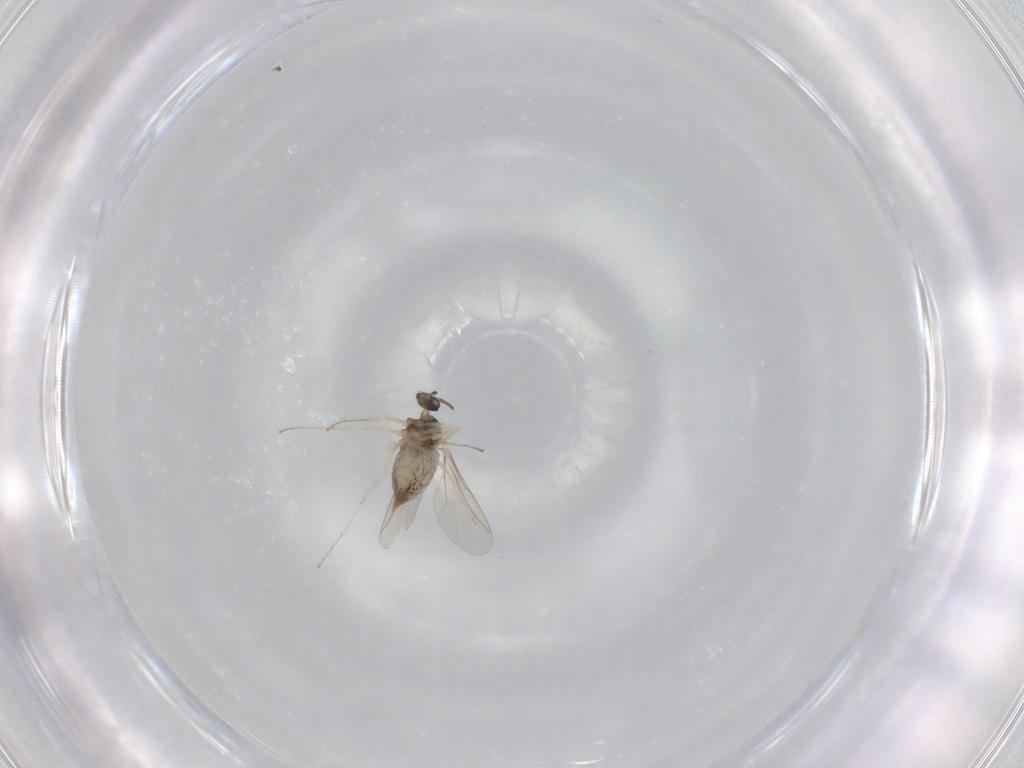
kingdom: Animalia
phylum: Arthropoda
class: Insecta
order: Diptera
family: Cecidomyiidae
